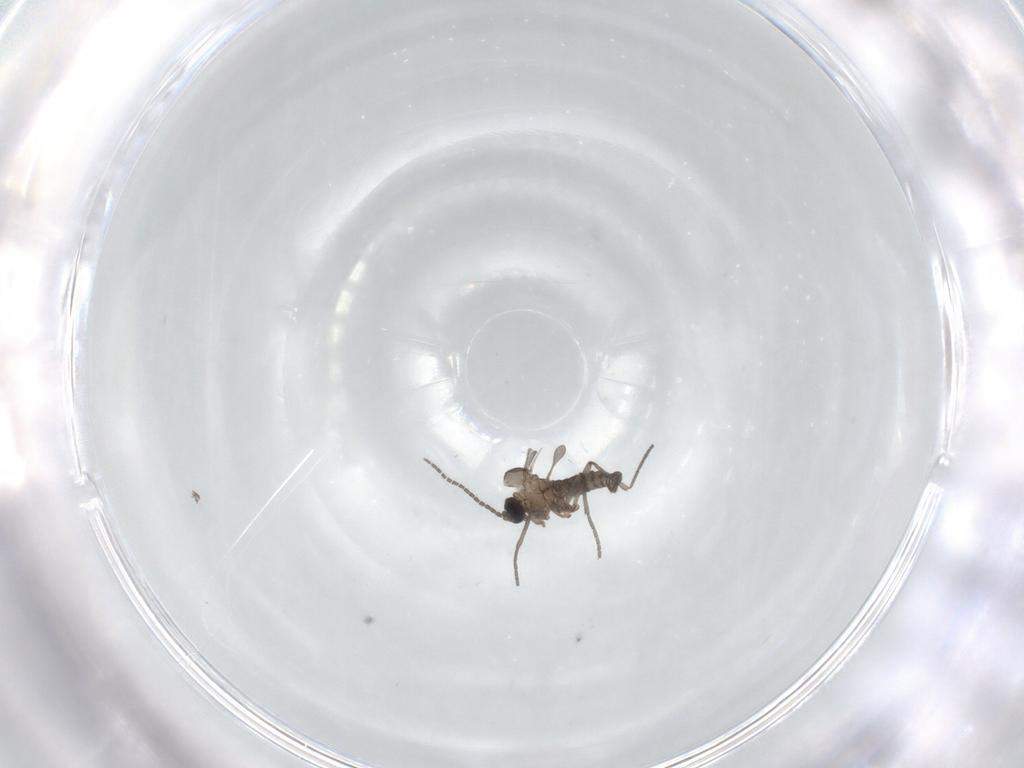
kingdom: Animalia
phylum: Arthropoda
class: Insecta
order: Diptera
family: Sciaridae
